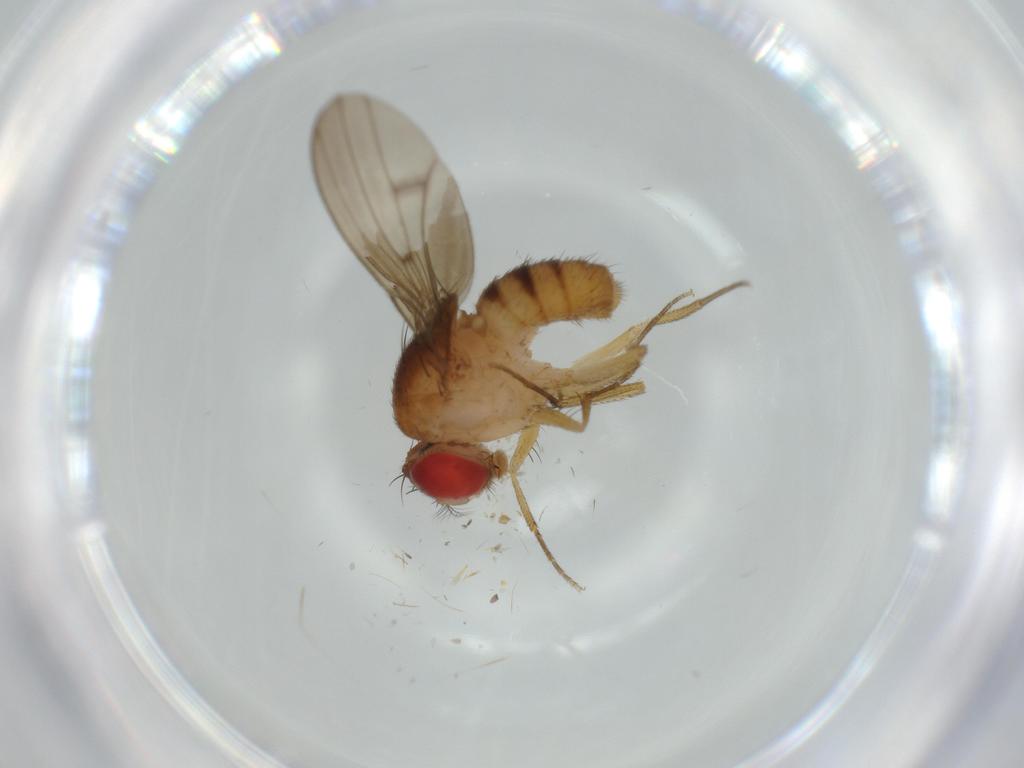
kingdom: Animalia
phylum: Arthropoda
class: Insecta
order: Diptera
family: Drosophilidae
